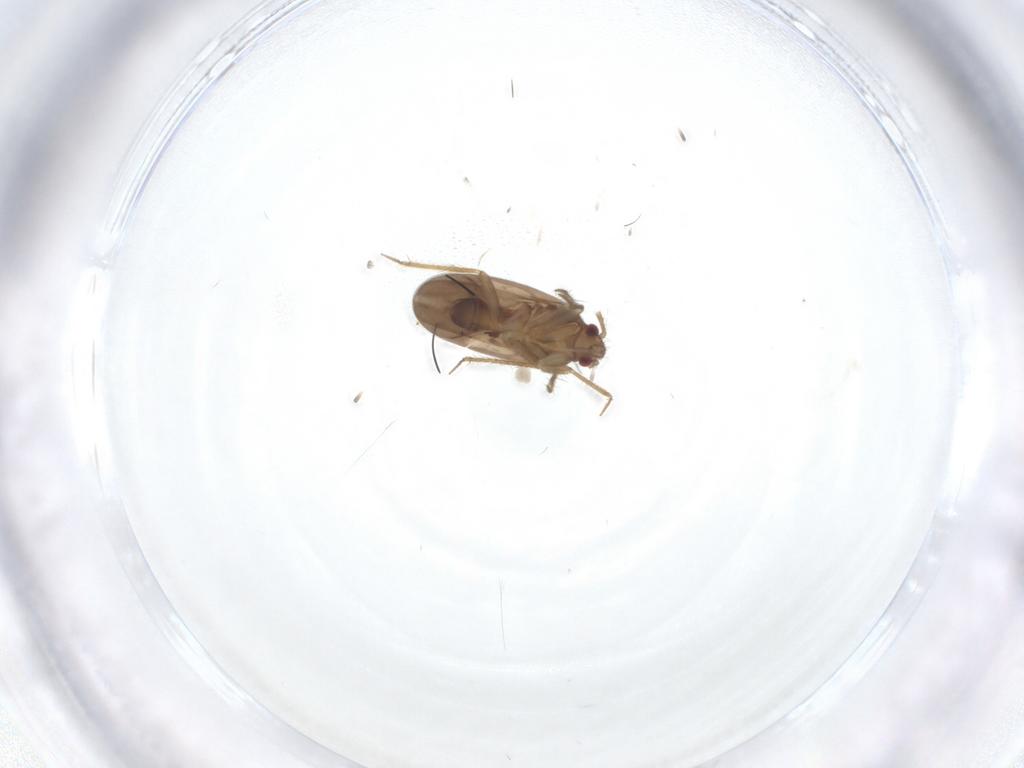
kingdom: Animalia
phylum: Arthropoda
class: Insecta
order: Hemiptera
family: Ceratocombidae
